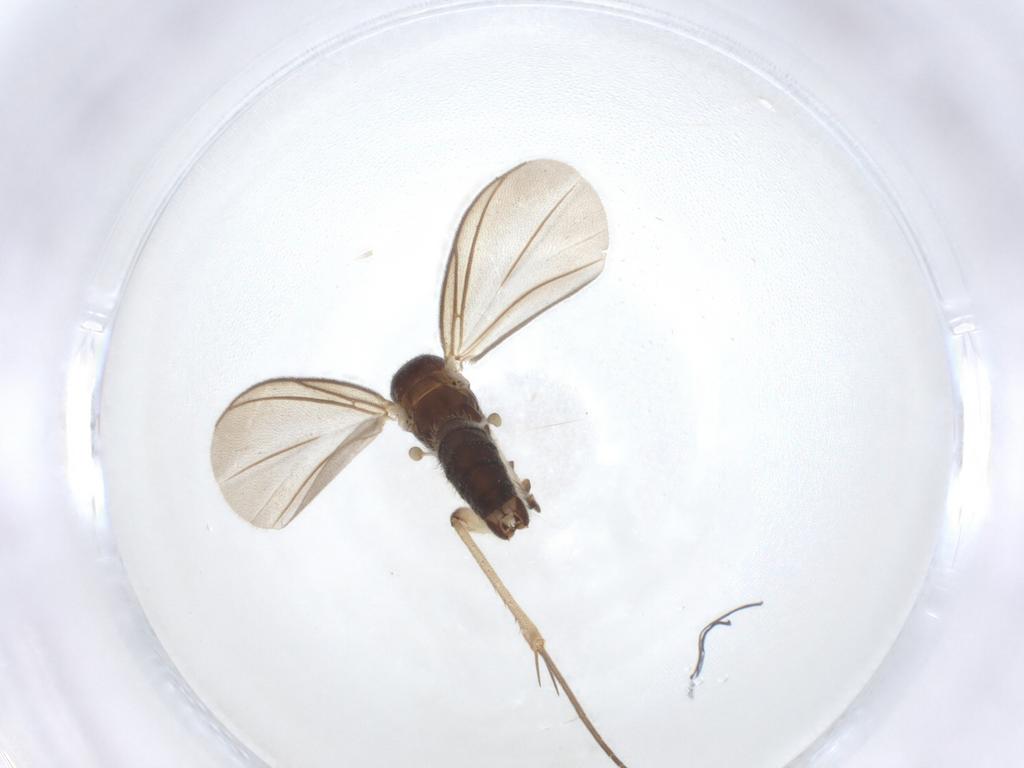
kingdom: Animalia
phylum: Arthropoda
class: Insecta
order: Diptera
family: Mycetophilidae
